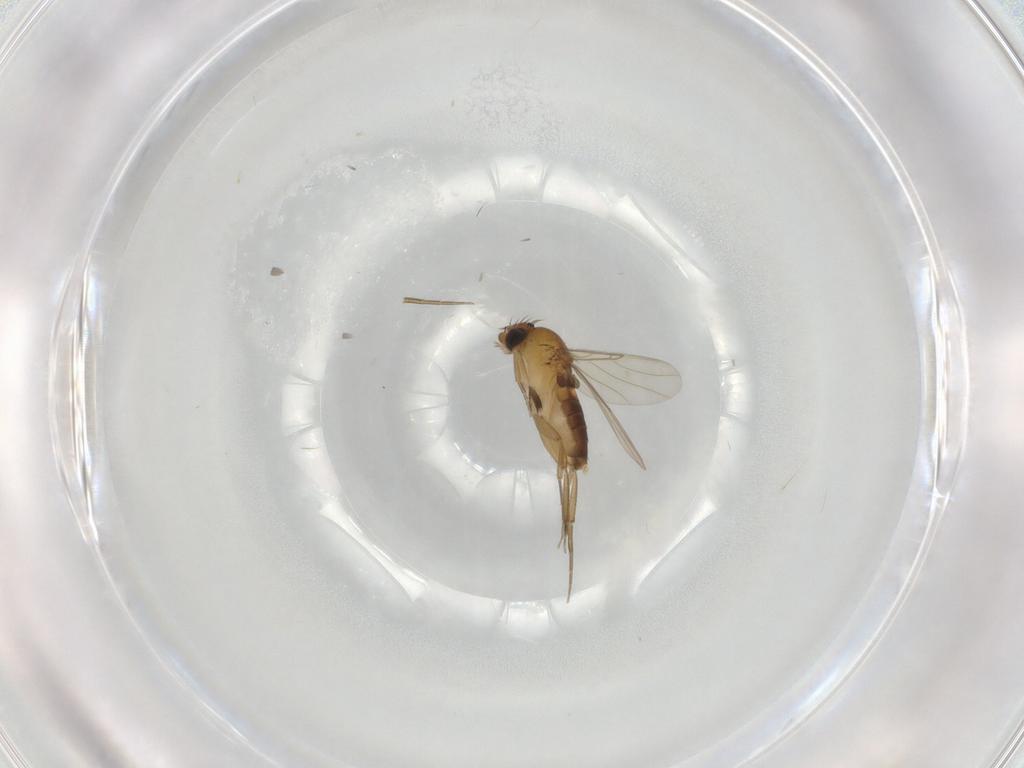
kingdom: Animalia
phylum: Arthropoda
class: Insecta
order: Diptera
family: Phoridae
